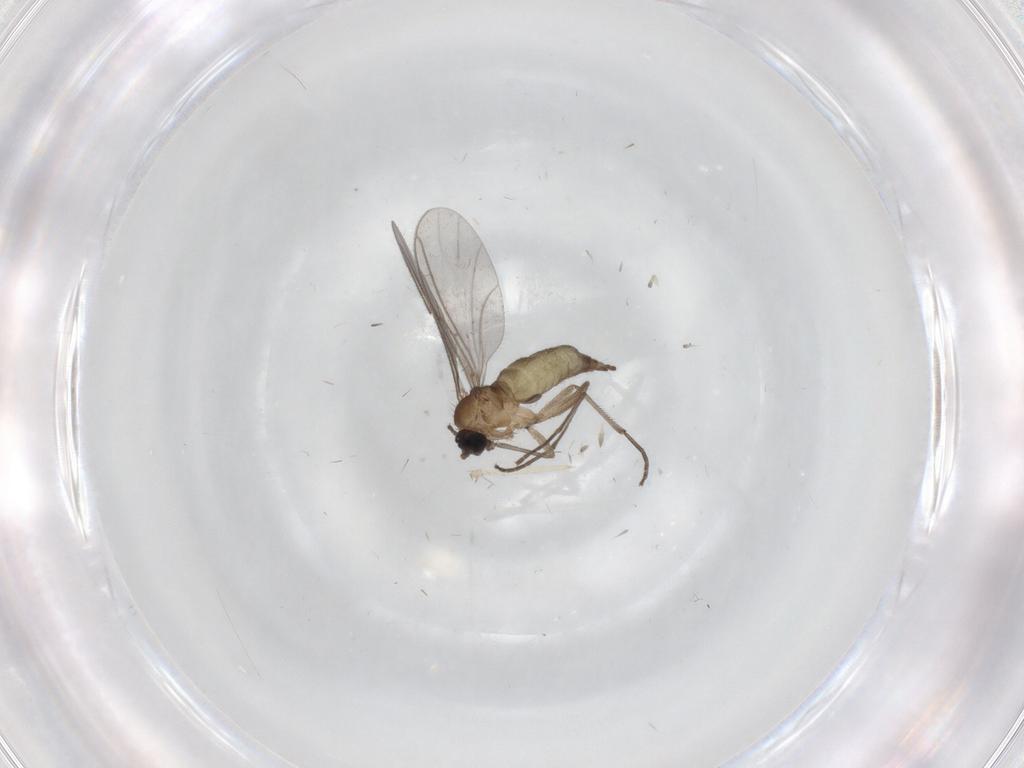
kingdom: Animalia
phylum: Arthropoda
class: Insecta
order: Diptera
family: Sciaridae
